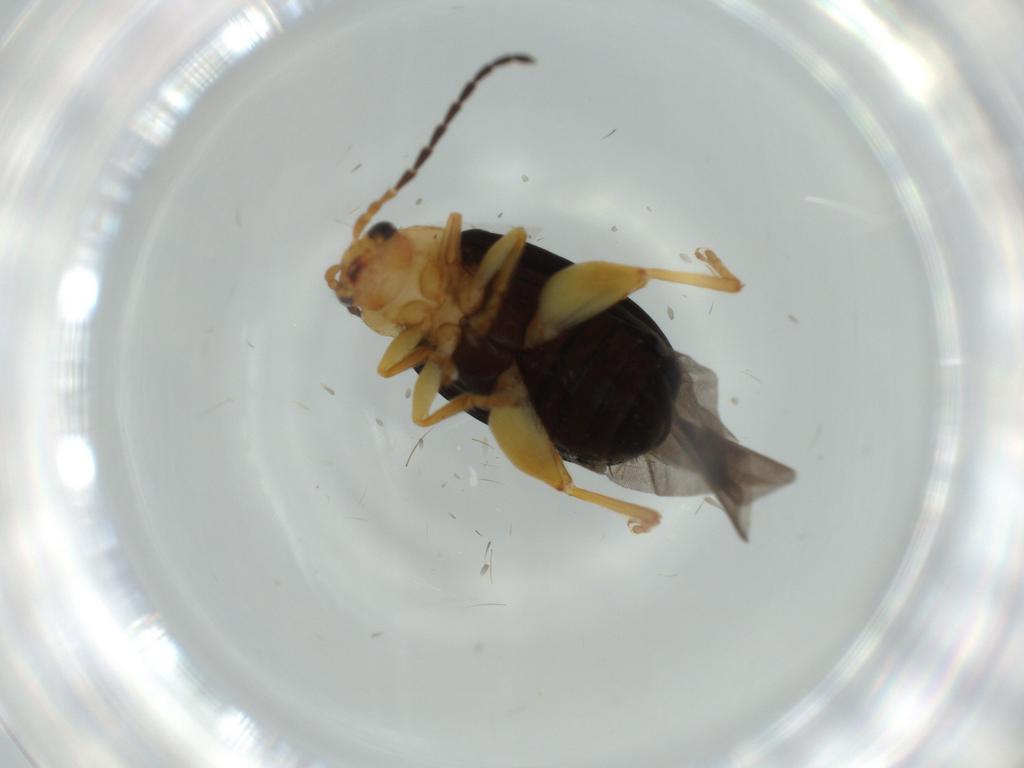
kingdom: Animalia
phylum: Arthropoda
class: Insecta
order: Coleoptera
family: Chrysomelidae
